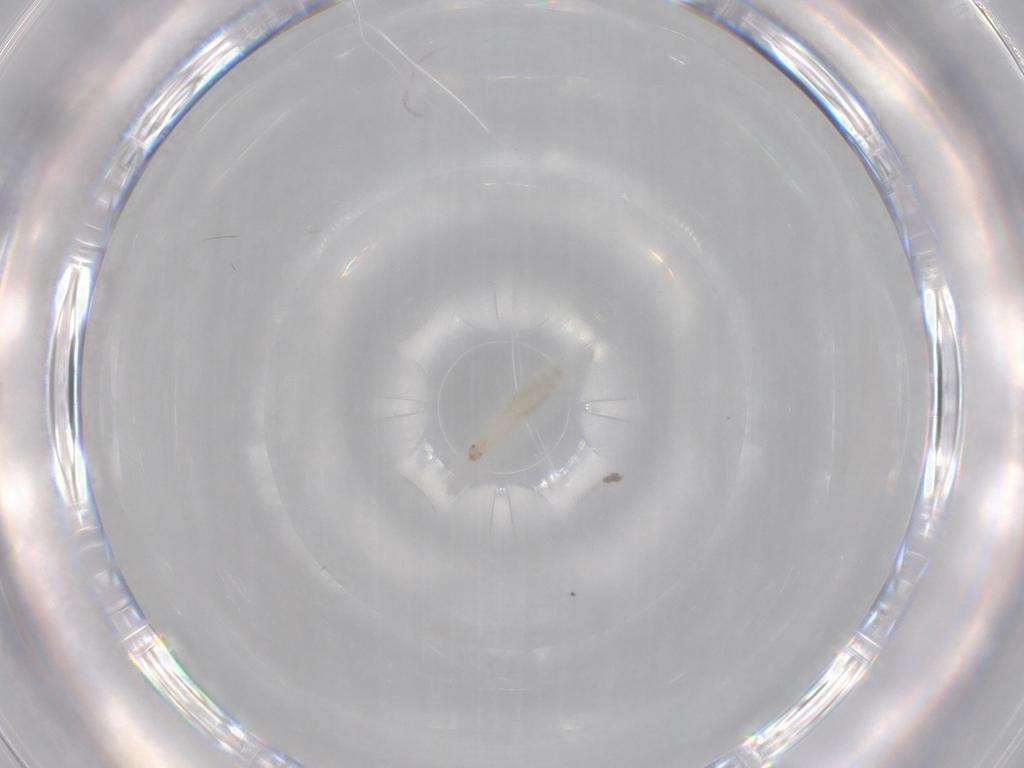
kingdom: Animalia
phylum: Arthropoda
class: Insecta
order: Diptera
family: Cecidomyiidae
